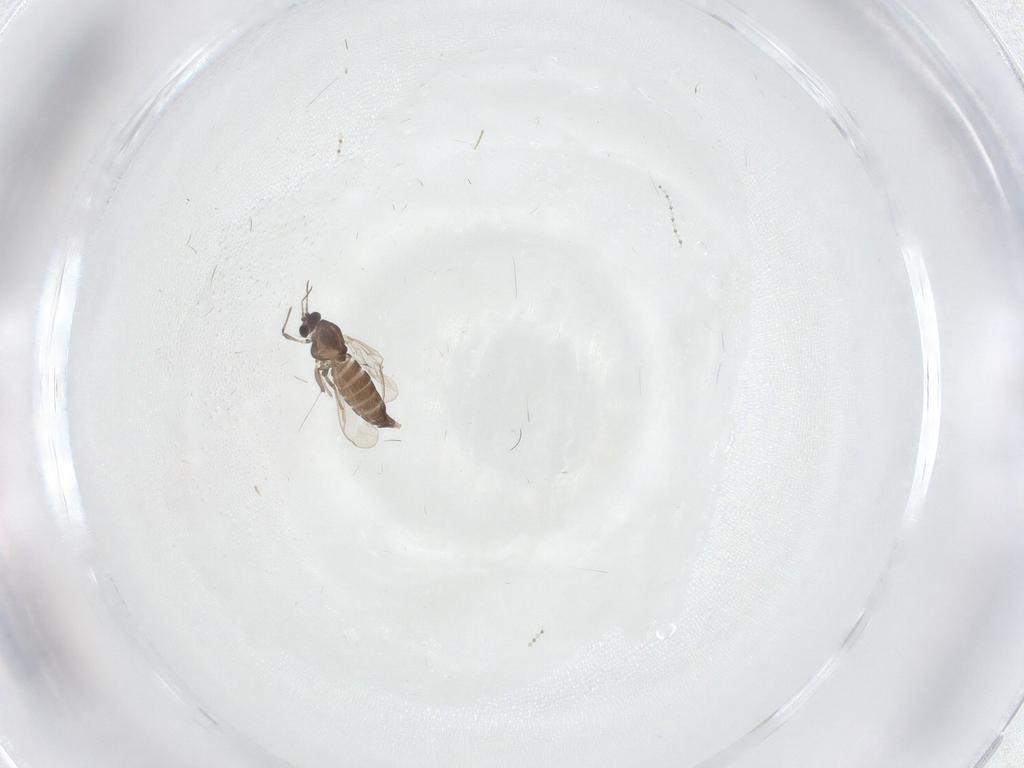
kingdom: Animalia
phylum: Arthropoda
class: Insecta
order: Diptera
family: Cecidomyiidae
